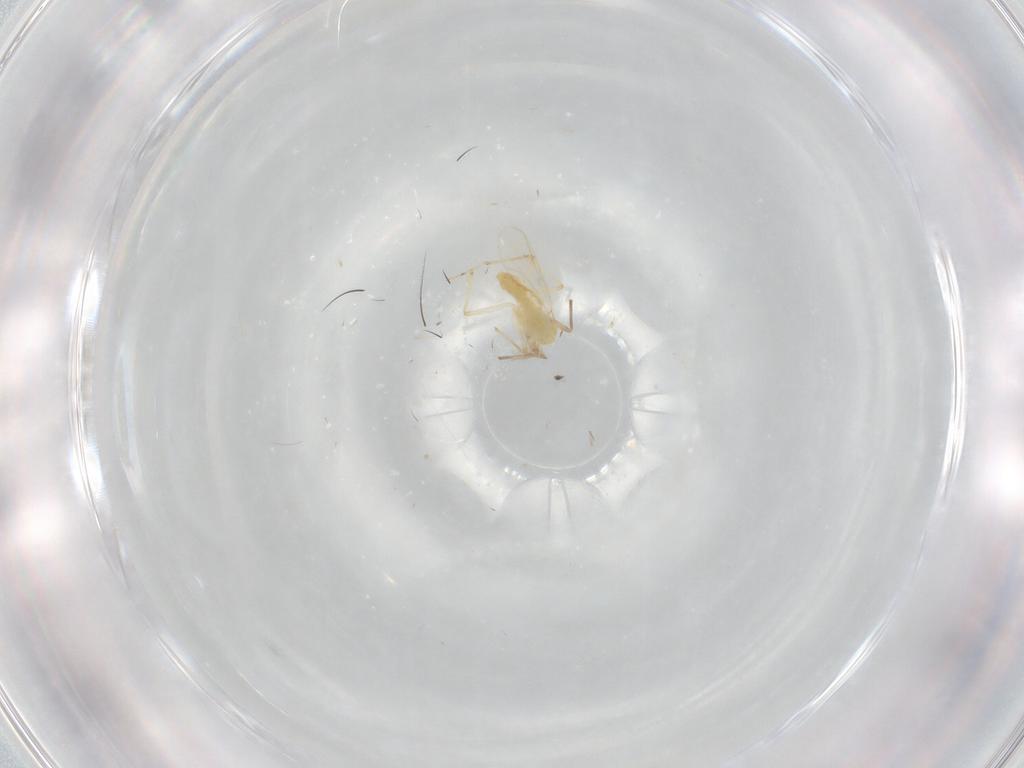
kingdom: Animalia
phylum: Arthropoda
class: Insecta
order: Diptera
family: Chironomidae
